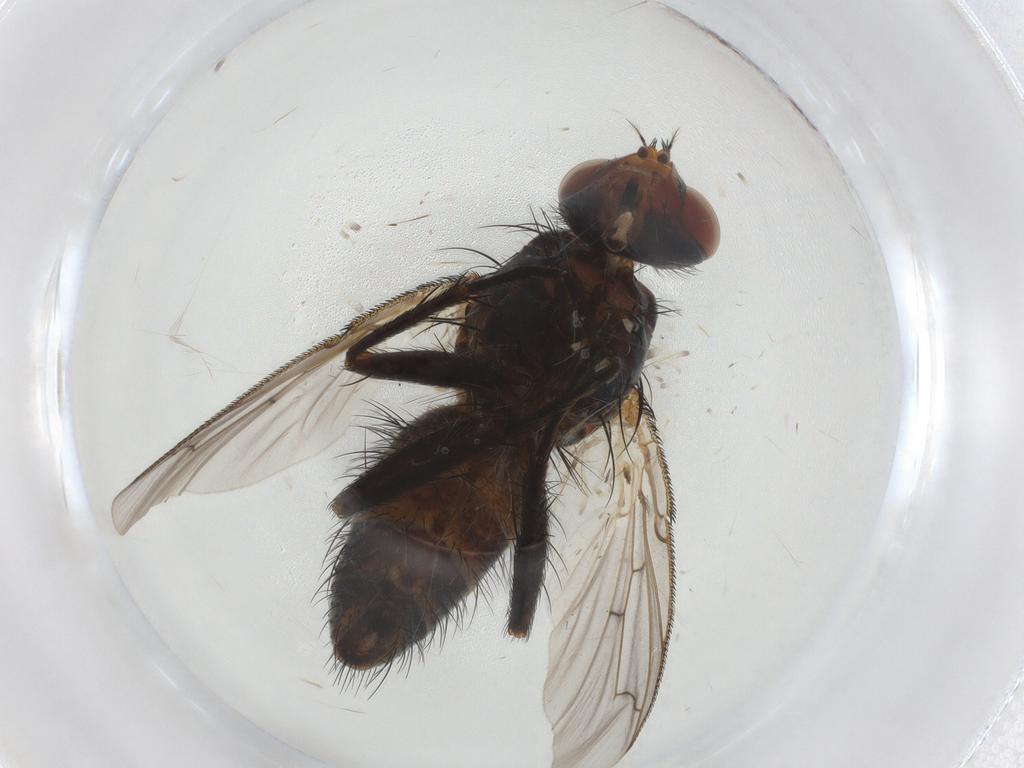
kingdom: Animalia
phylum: Arthropoda
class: Insecta
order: Diptera
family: Tachinidae
